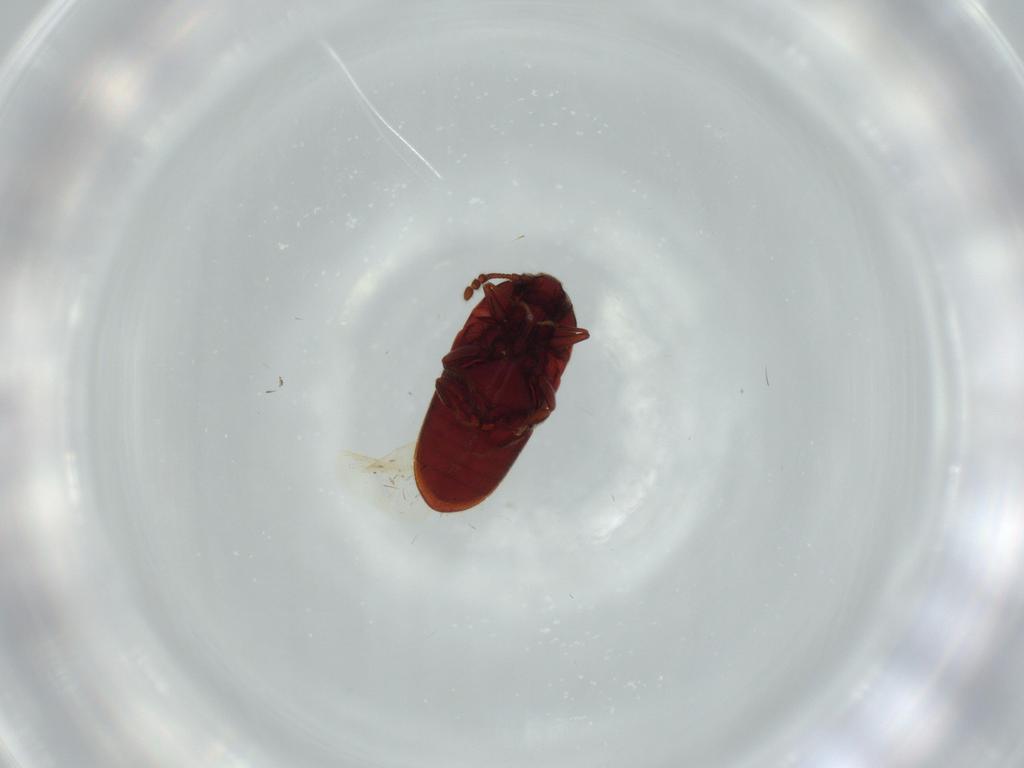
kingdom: Animalia
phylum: Arthropoda
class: Insecta
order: Coleoptera
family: Throscidae
